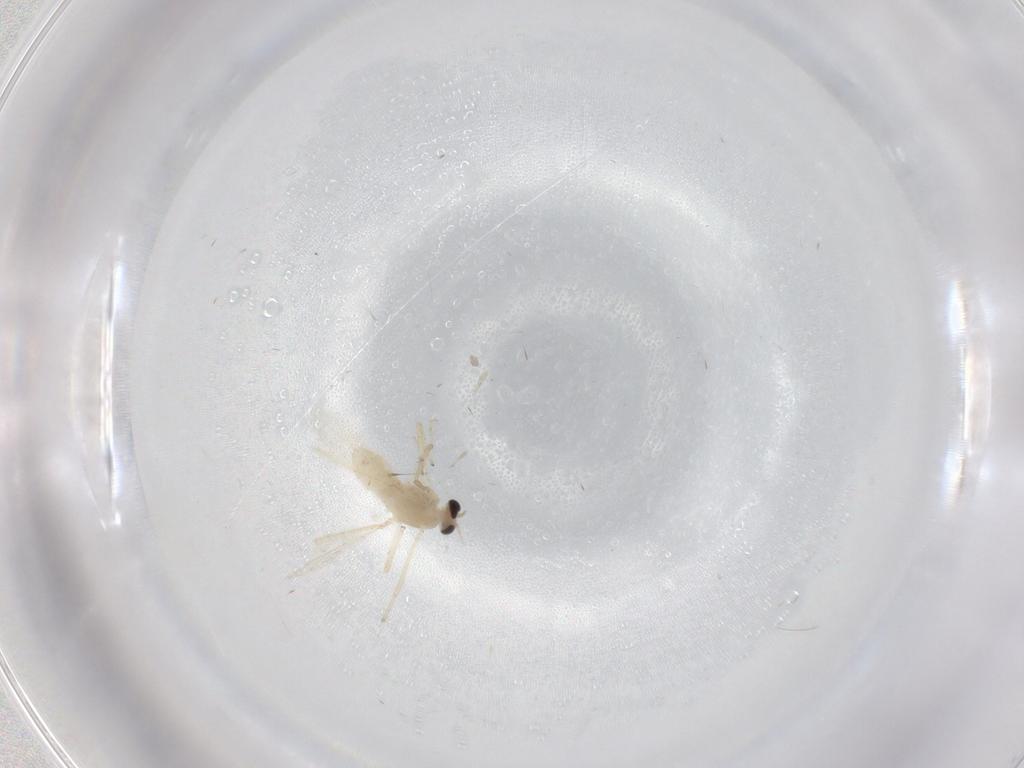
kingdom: Animalia
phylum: Arthropoda
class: Insecta
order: Diptera
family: Chironomidae
